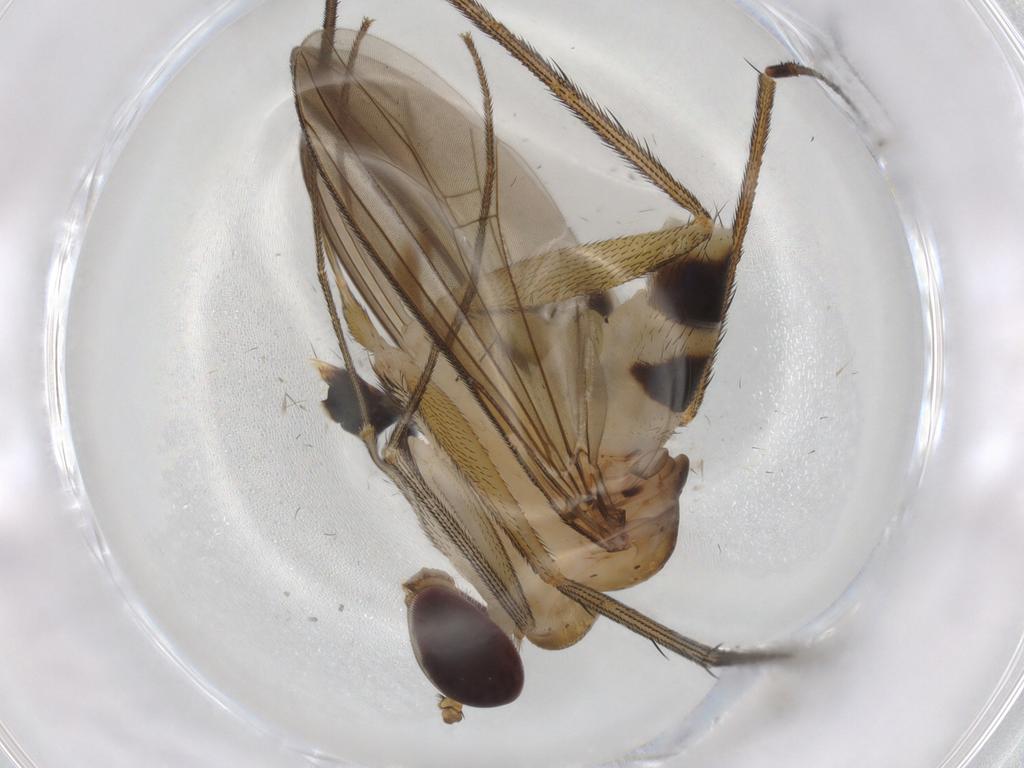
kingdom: Animalia
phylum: Arthropoda
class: Insecta
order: Diptera
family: Dolichopodidae
